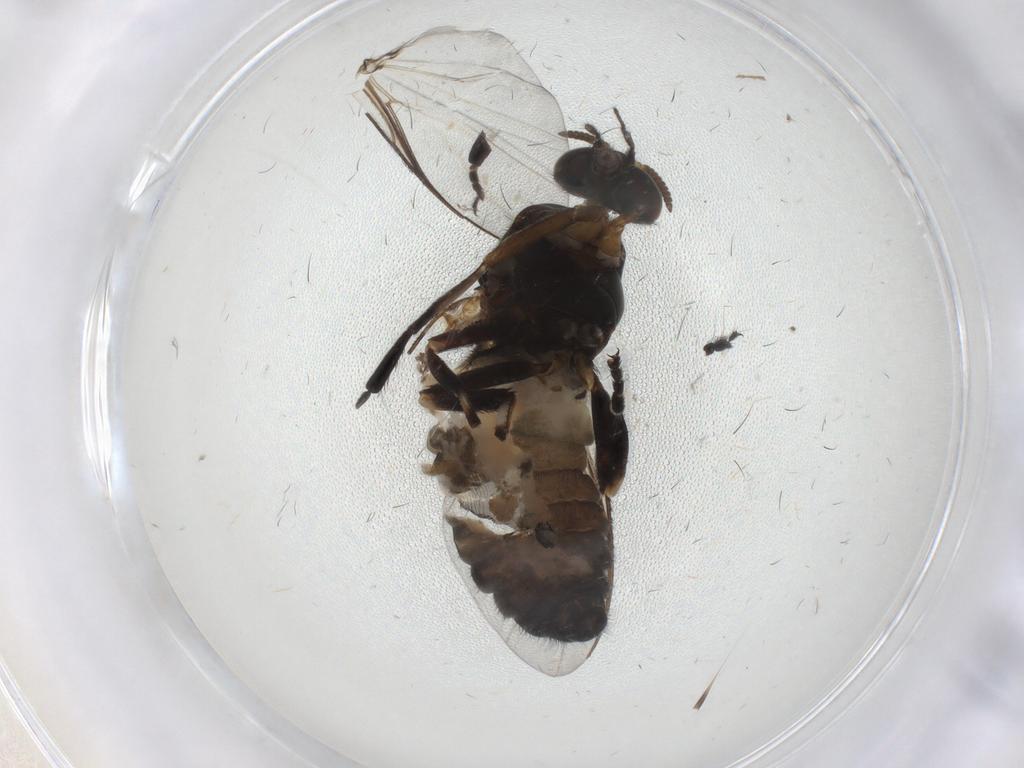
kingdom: Animalia
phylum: Arthropoda
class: Insecta
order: Diptera
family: Simuliidae
